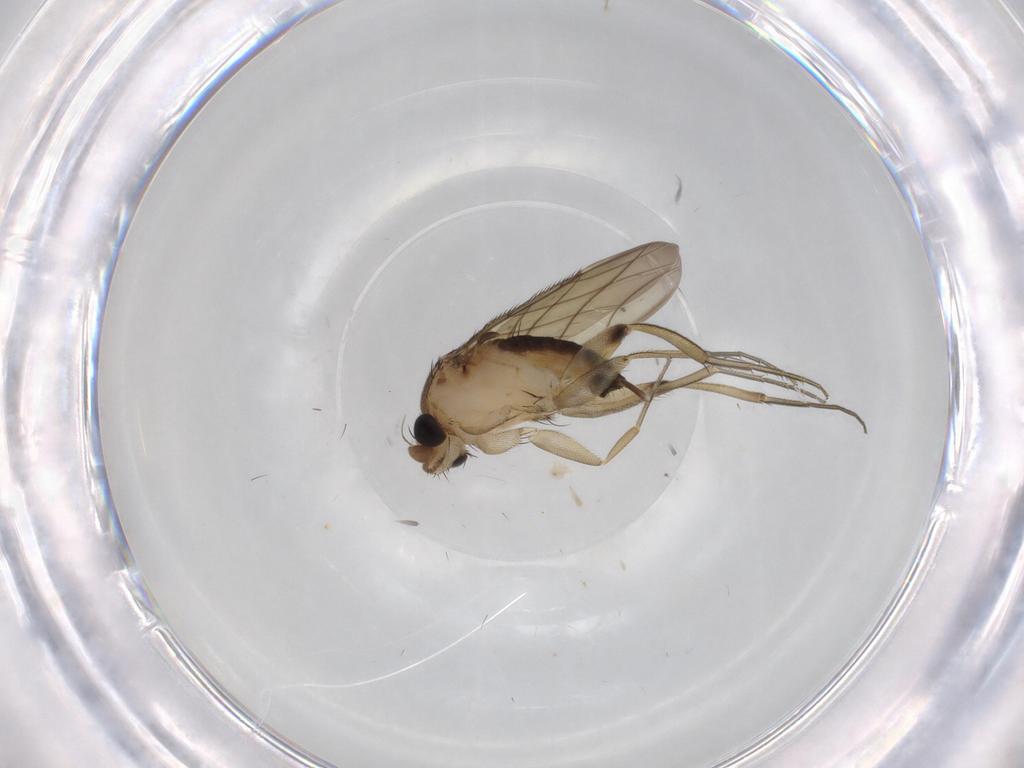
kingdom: Animalia
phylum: Arthropoda
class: Insecta
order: Diptera
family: Phoridae
